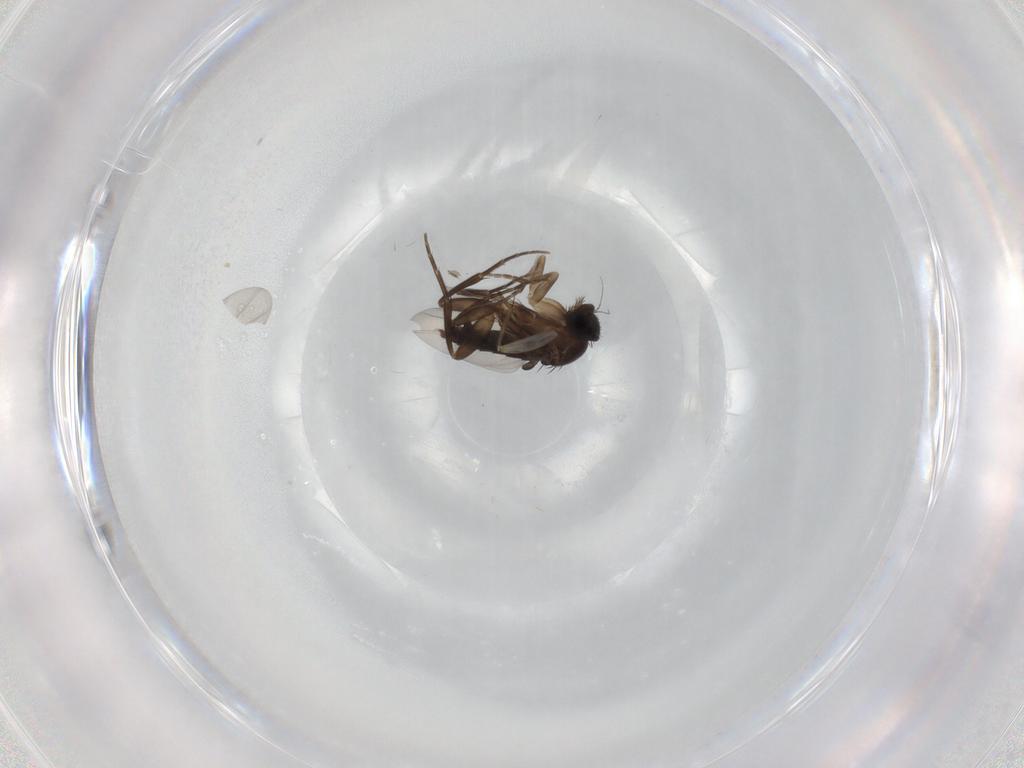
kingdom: Animalia
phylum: Arthropoda
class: Insecta
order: Diptera
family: Phoridae
